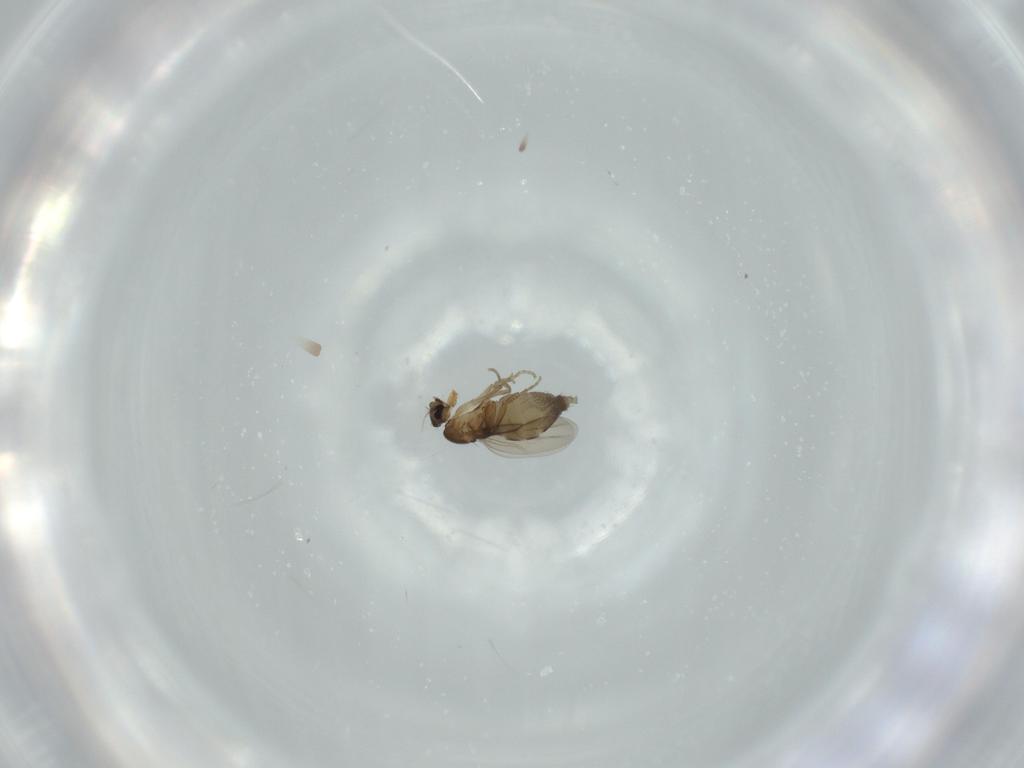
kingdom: Animalia
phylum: Arthropoda
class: Insecta
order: Diptera
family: Phoridae
